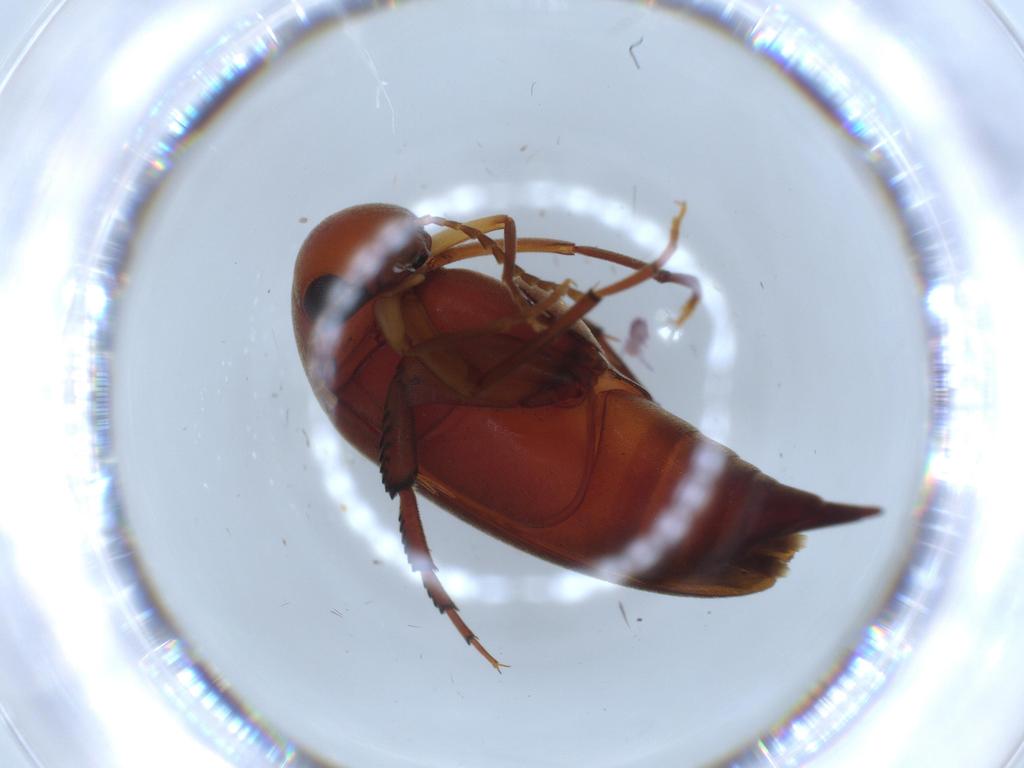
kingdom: Animalia
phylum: Arthropoda
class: Insecta
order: Coleoptera
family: Mordellidae
